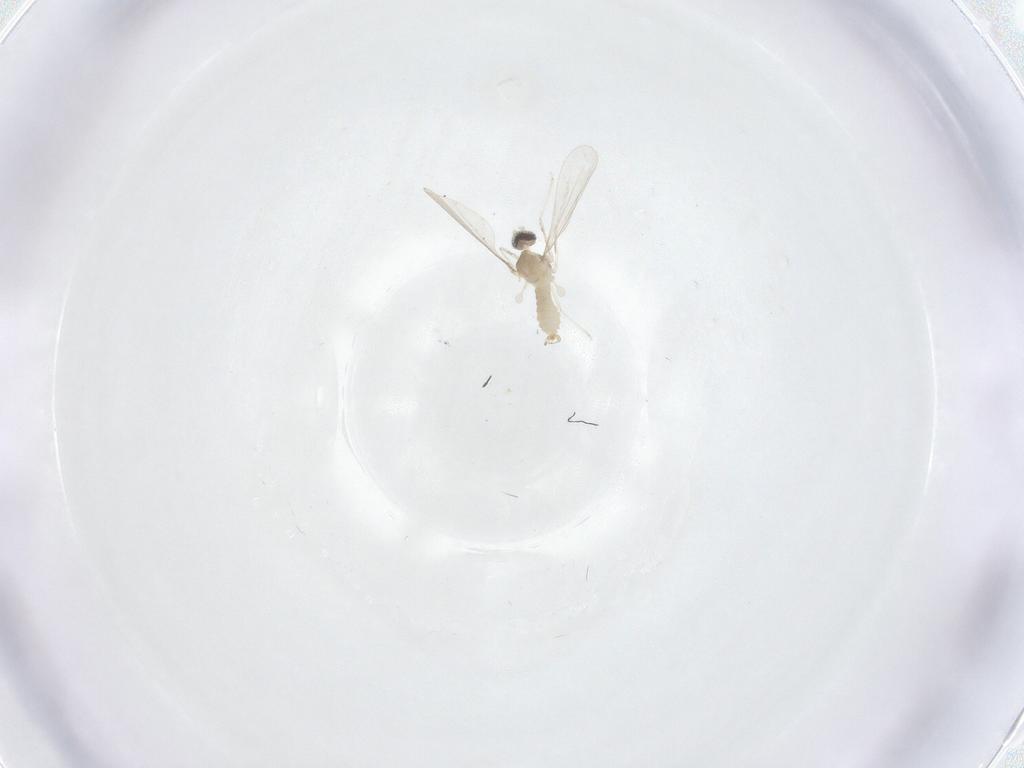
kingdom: Animalia
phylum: Arthropoda
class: Insecta
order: Diptera
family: Cecidomyiidae
